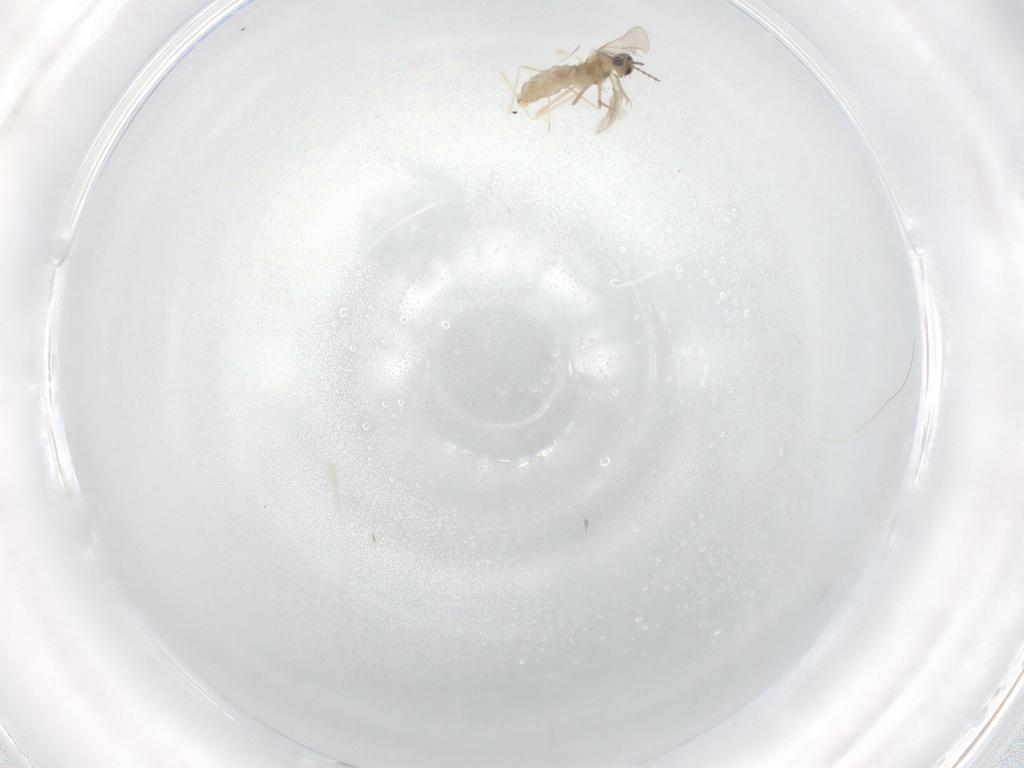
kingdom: Animalia
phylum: Arthropoda
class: Insecta
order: Diptera
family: Cecidomyiidae
